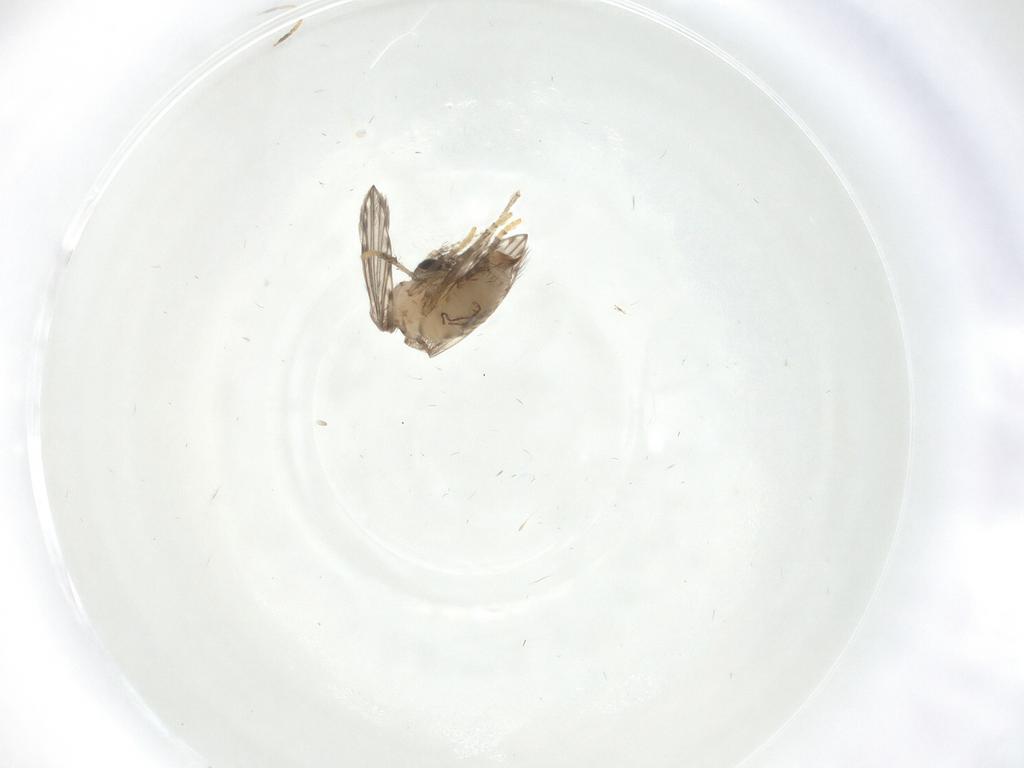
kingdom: Animalia
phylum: Arthropoda
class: Insecta
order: Diptera
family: Psychodidae
